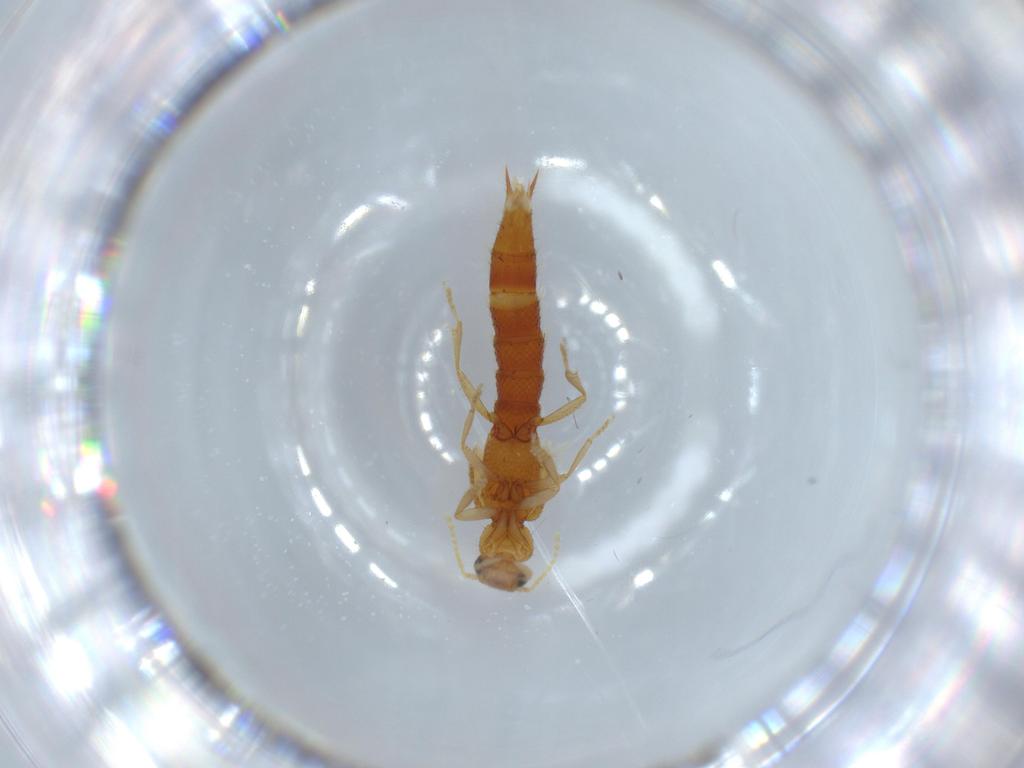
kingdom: Animalia
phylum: Arthropoda
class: Insecta
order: Coleoptera
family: Staphylinidae
